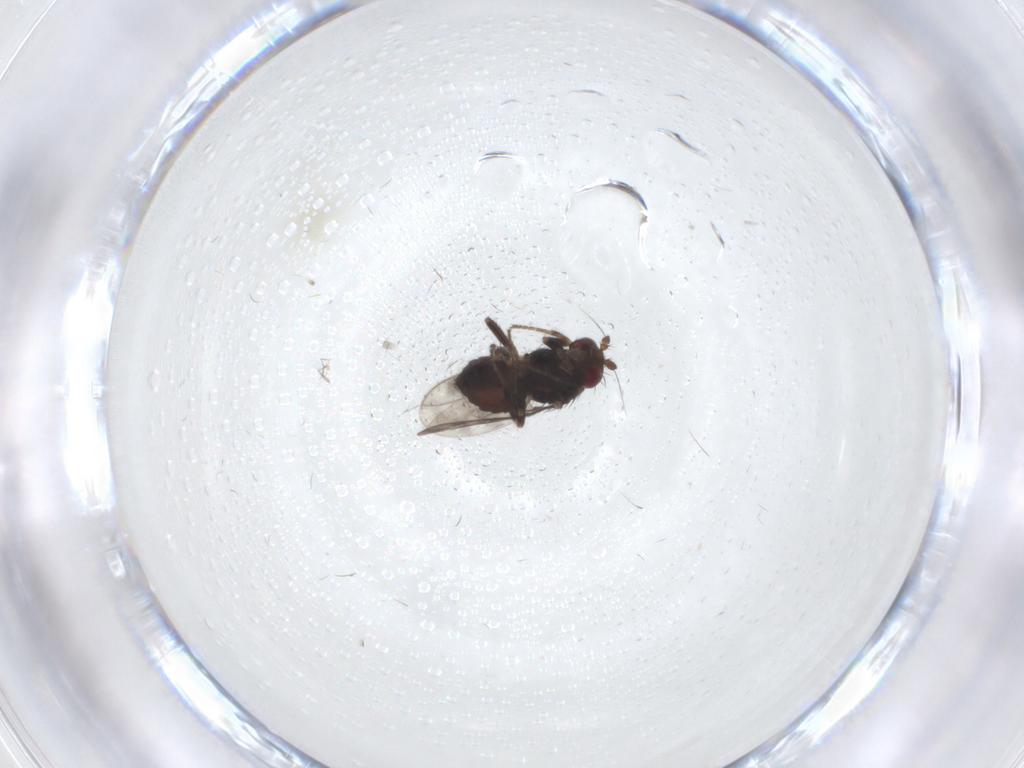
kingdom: Animalia
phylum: Arthropoda
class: Insecta
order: Diptera
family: Sphaeroceridae
